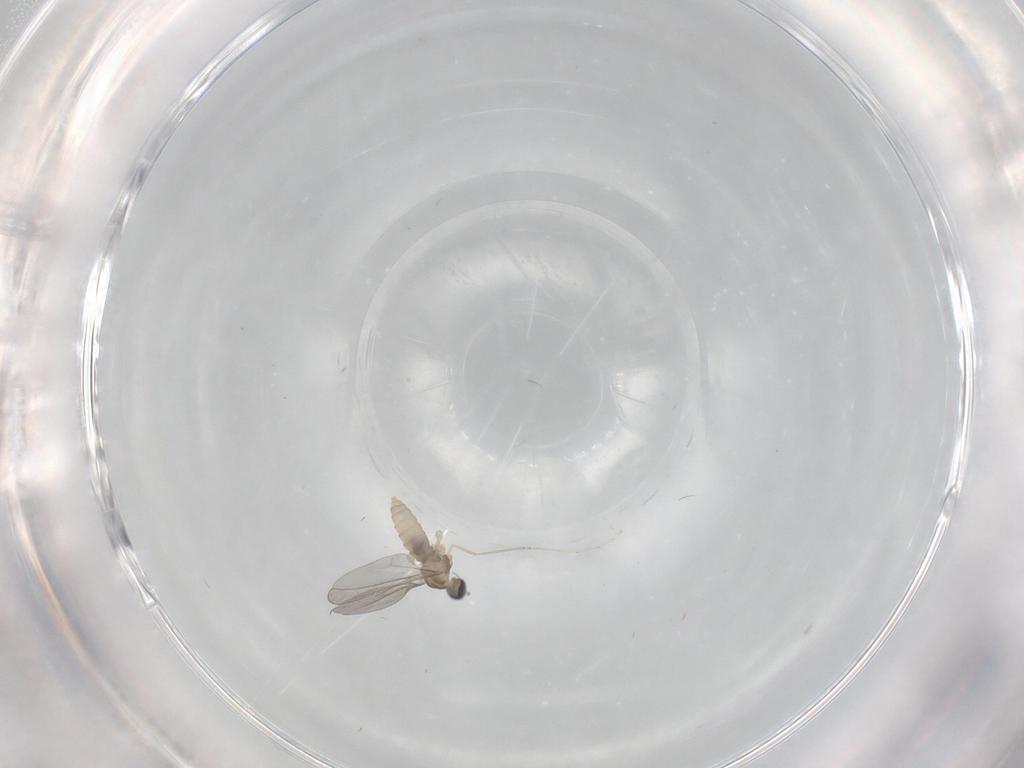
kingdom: Animalia
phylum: Arthropoda
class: Insecta
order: Diptera
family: Cecidomyiidae
